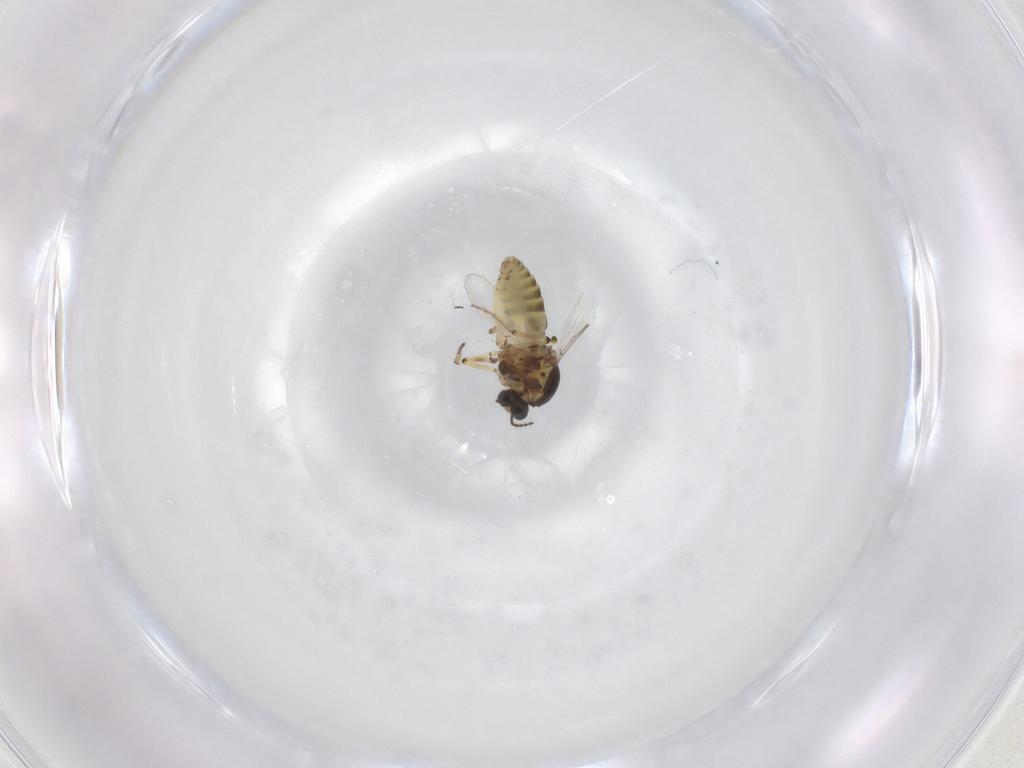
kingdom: Animalia
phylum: Arthropoda
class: Insecta
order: Diptera
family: Ceratopogonidae
